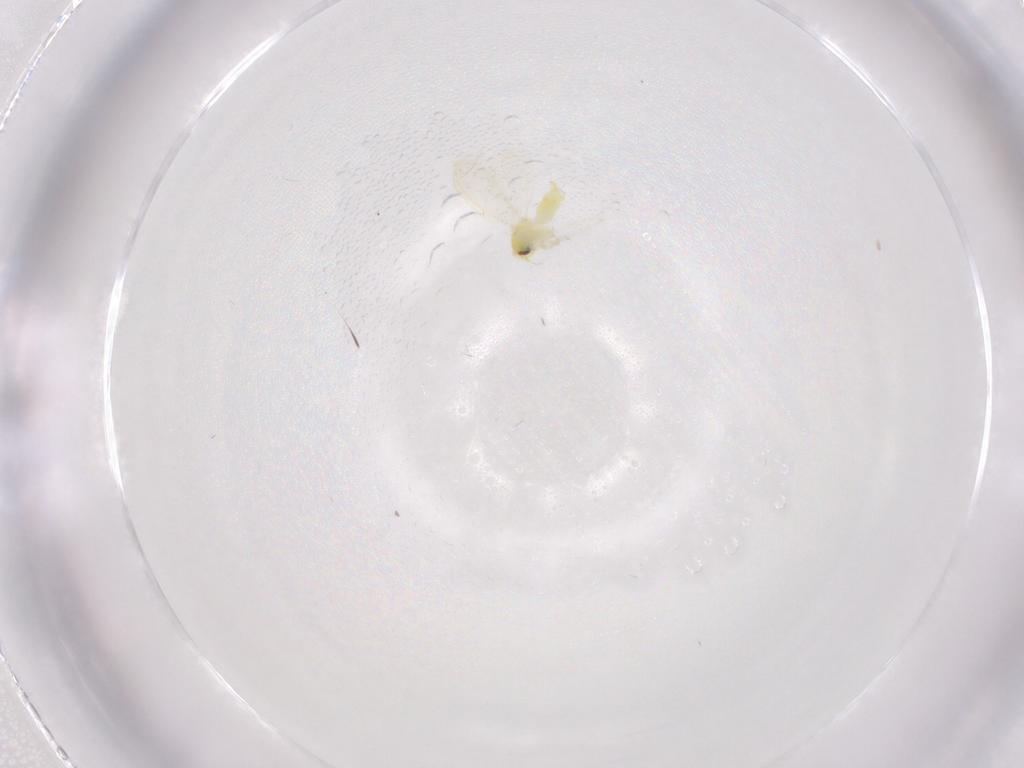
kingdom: Animalia
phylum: Arthropoda
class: Insecta
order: Hemiptera
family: Aleyrodidae
